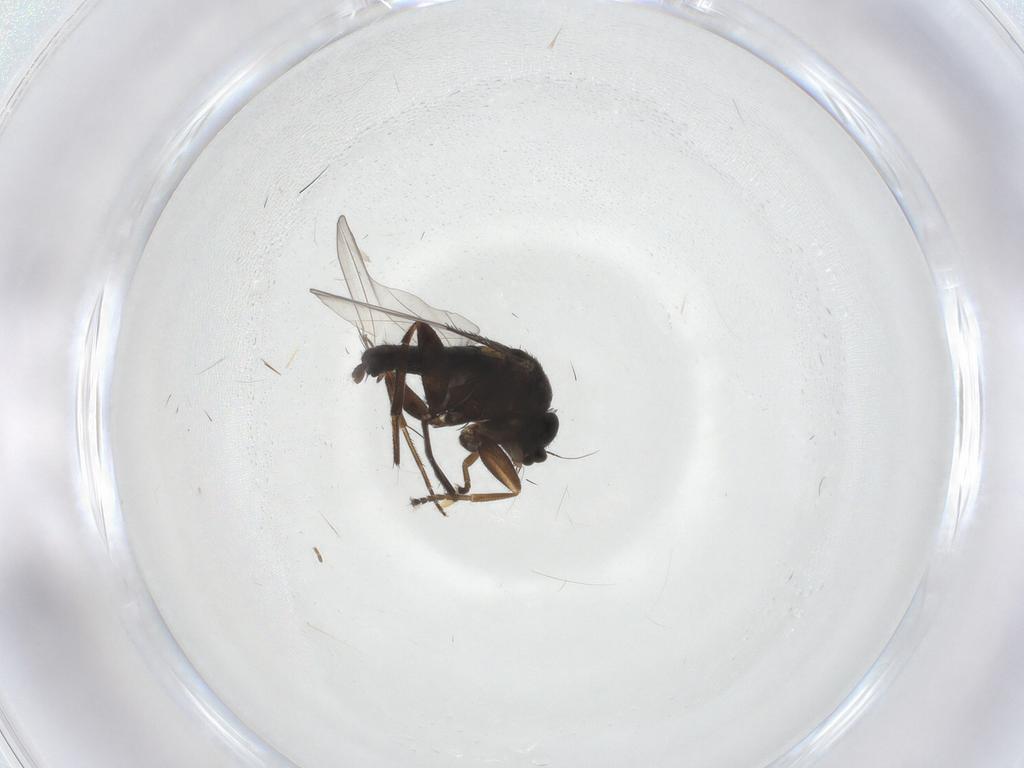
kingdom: Animalia
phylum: Arthropoda
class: Insecta
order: Diptera
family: Phoridae
